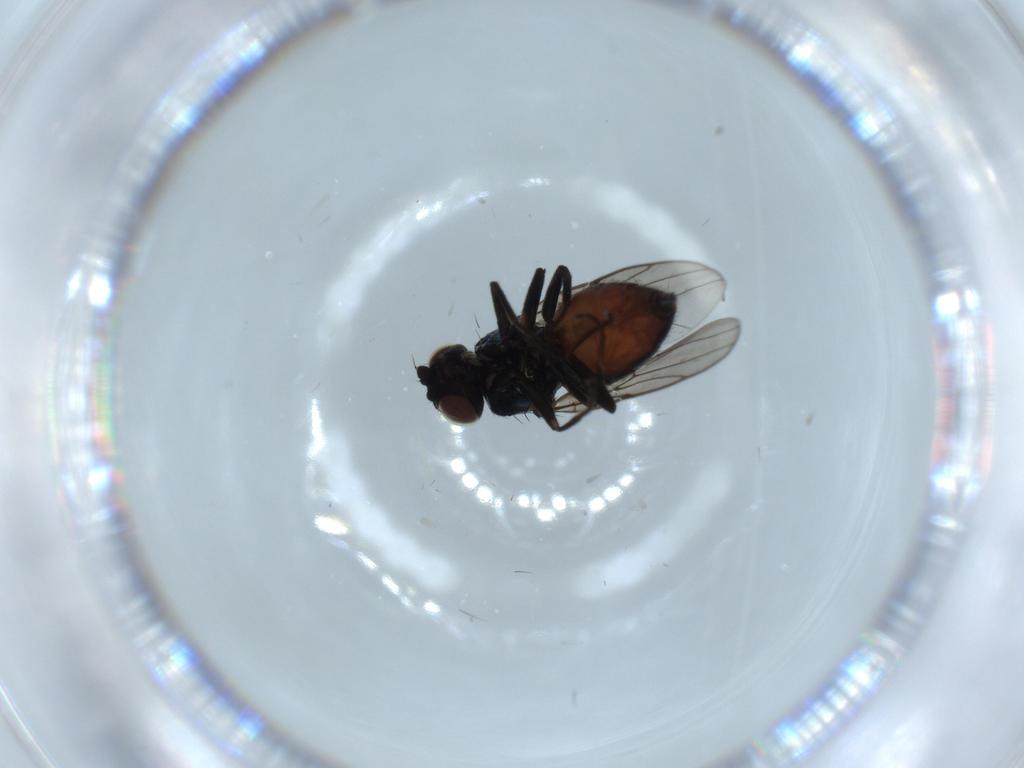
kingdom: Animalia
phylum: Arthropoda
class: Insecta
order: Diptera
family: Chloropidae
